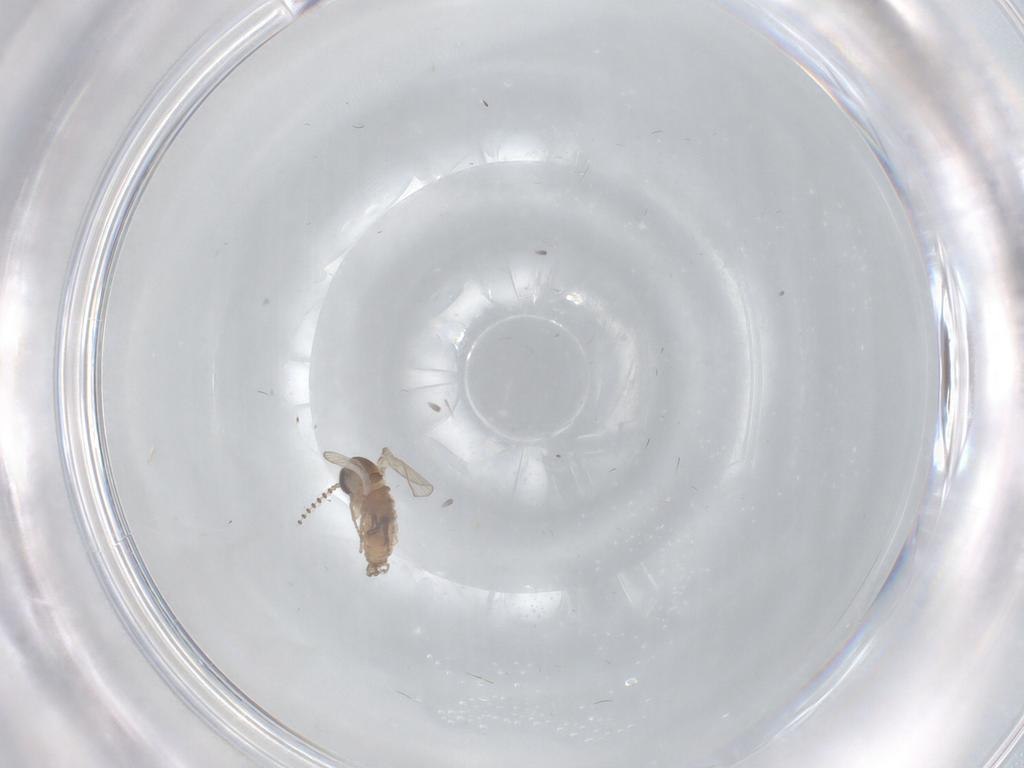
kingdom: Animalia
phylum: Arthropoda
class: Insecta
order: Diptera
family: Psychodidae
